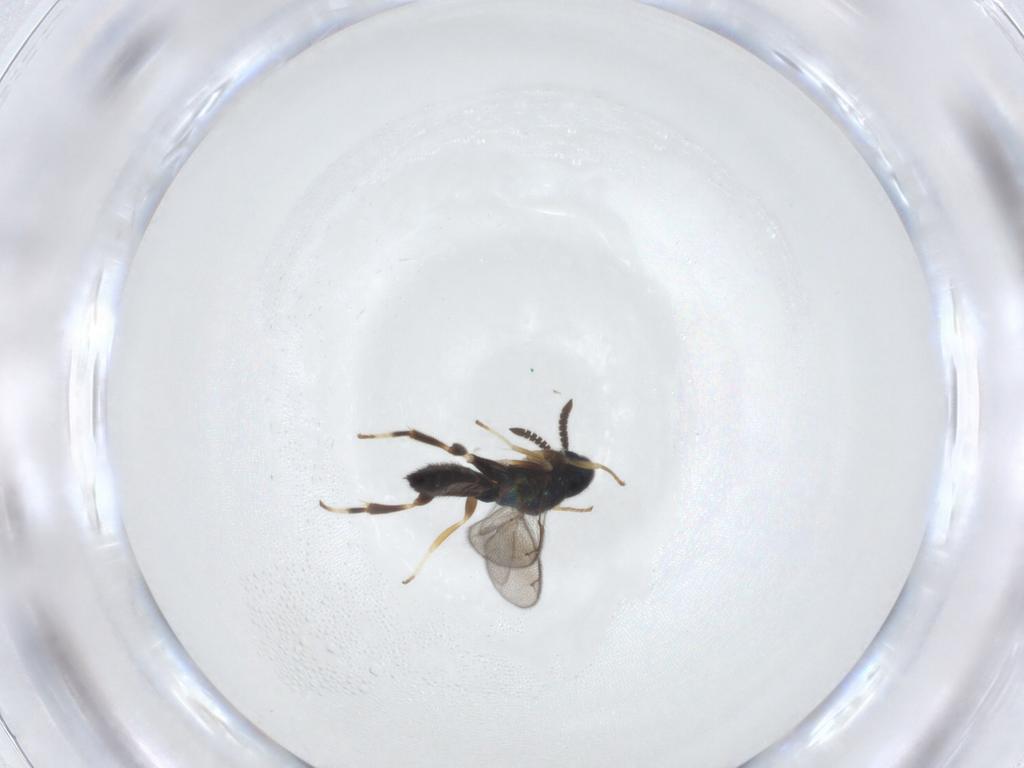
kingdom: Animalia
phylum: Arthropoda
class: Insecta
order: Hymenoptera
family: Cleonyminae
